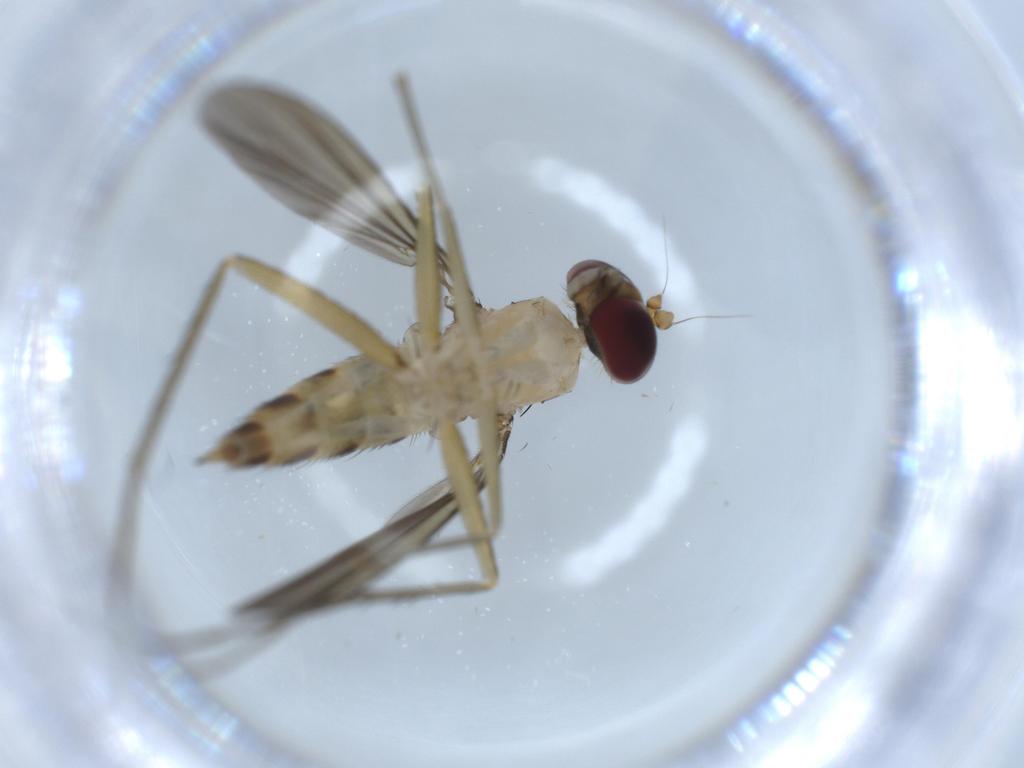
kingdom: Animalia
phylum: Arthropoda
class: Insecta
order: Diptera
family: Dolichopodidae
